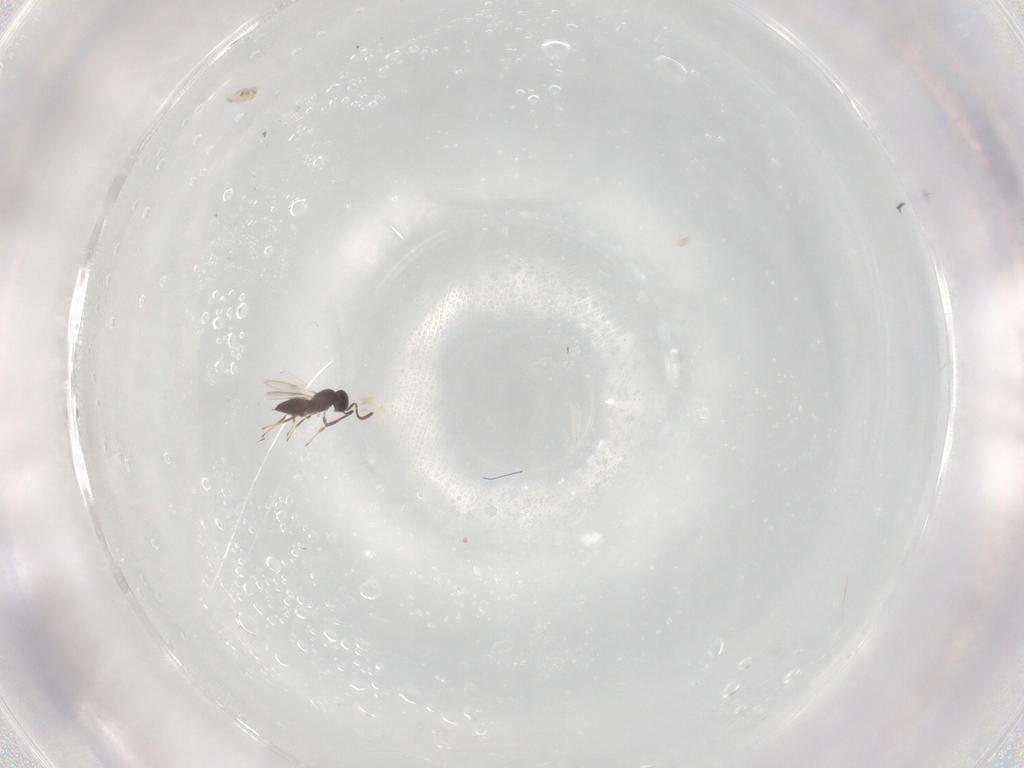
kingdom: Animalia
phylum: Arthropoda
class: Insecta
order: Hymenoptera
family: Scelionidae
